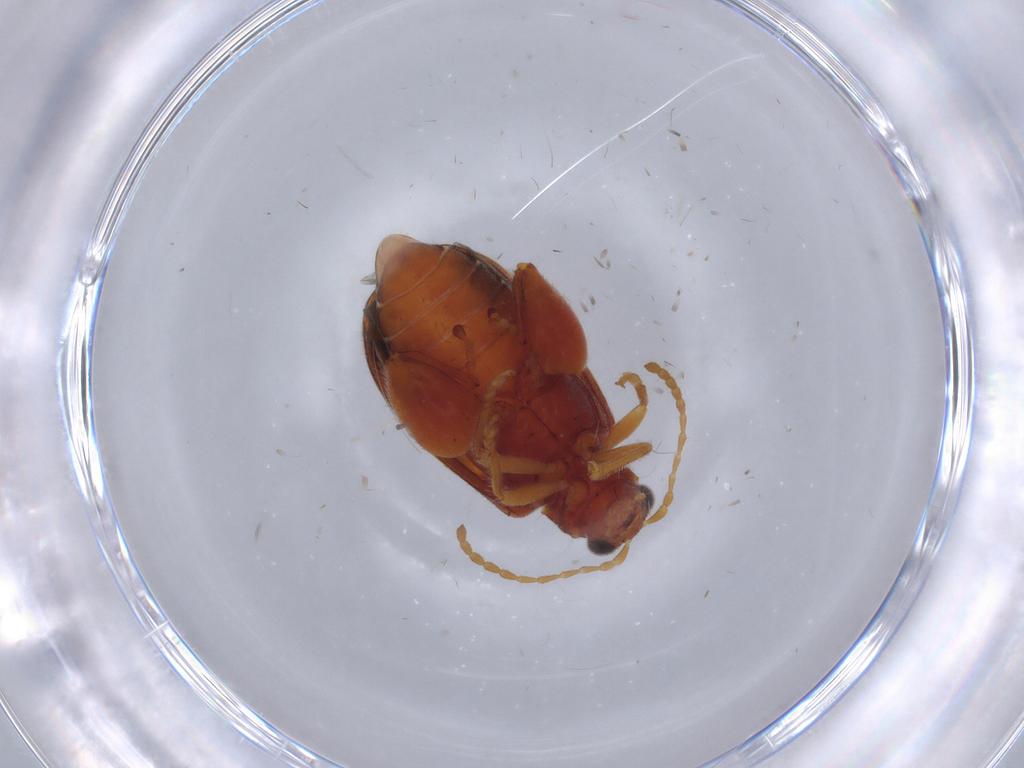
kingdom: Animalia
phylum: Arthropoda
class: Insecta
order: Coleoptera
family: Chrysomelidae
